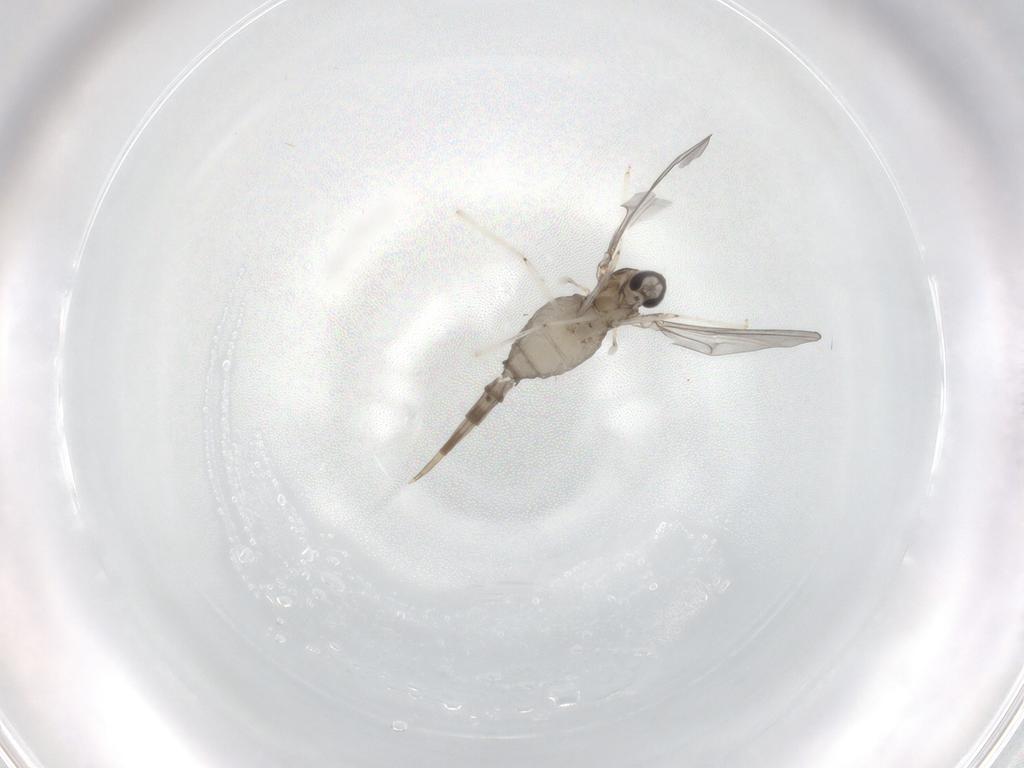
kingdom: Animalia
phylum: Arthropoda
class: Insecta
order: Diptera
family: Cecidomyiidae
